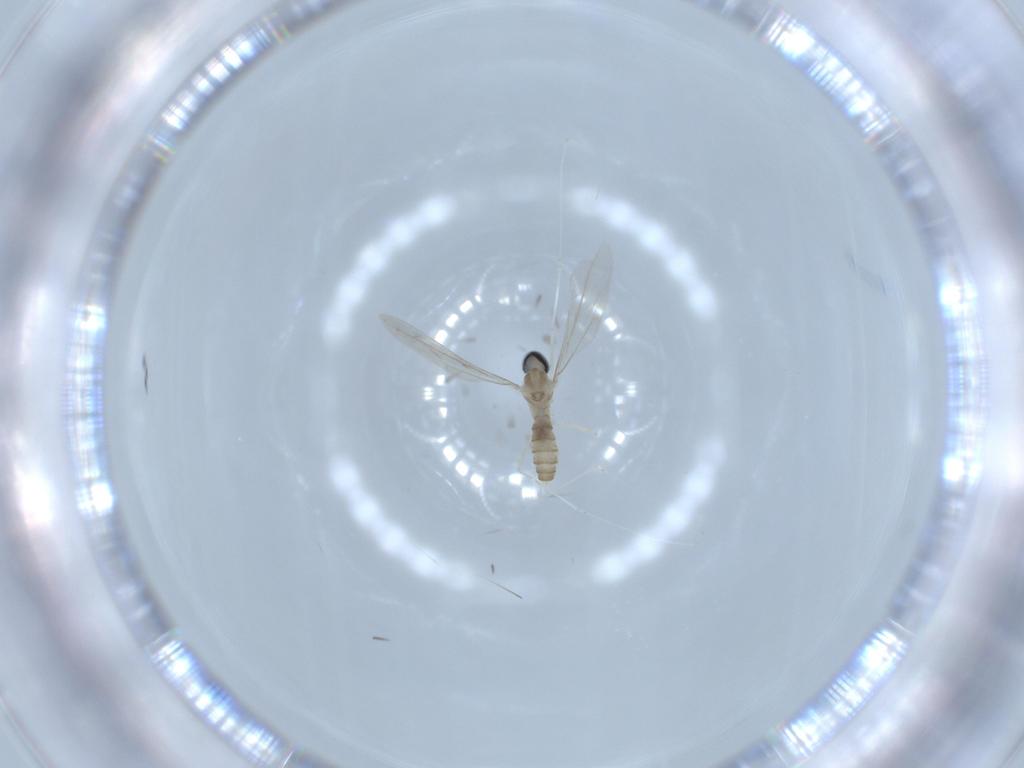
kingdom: Animalia
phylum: Arthropoda
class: Insecta
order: Diptera
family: Cecidomyiidae
